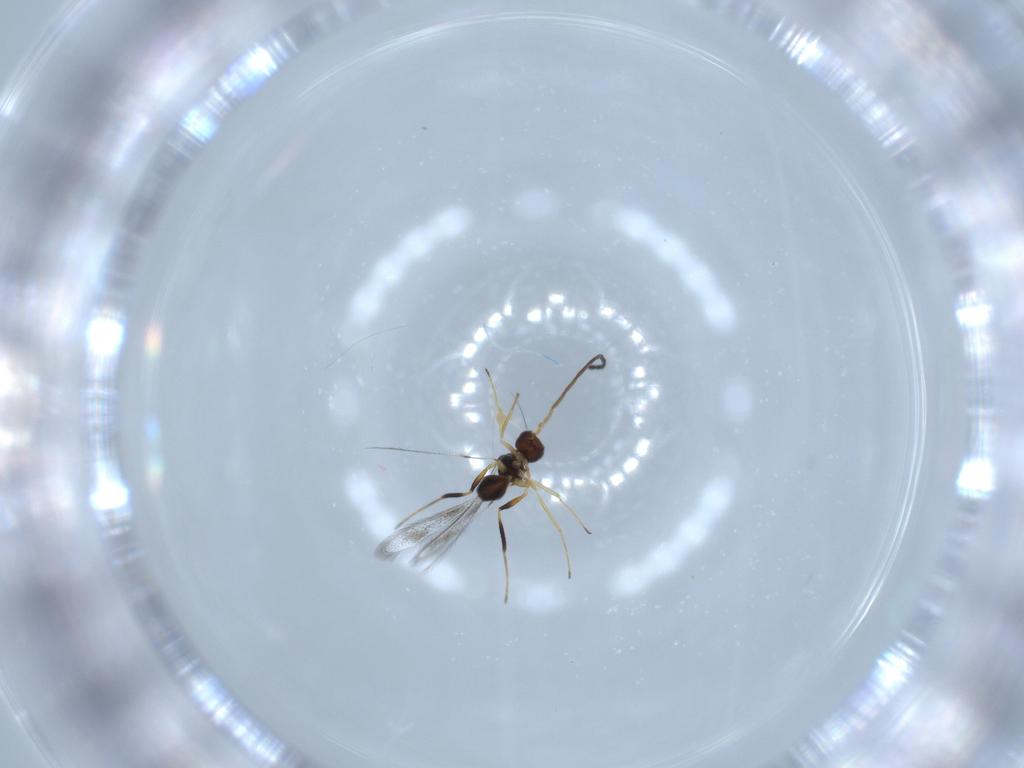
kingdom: Animalia
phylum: Arthropoda
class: Insecta
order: Hymenoptera
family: Mymaridae
